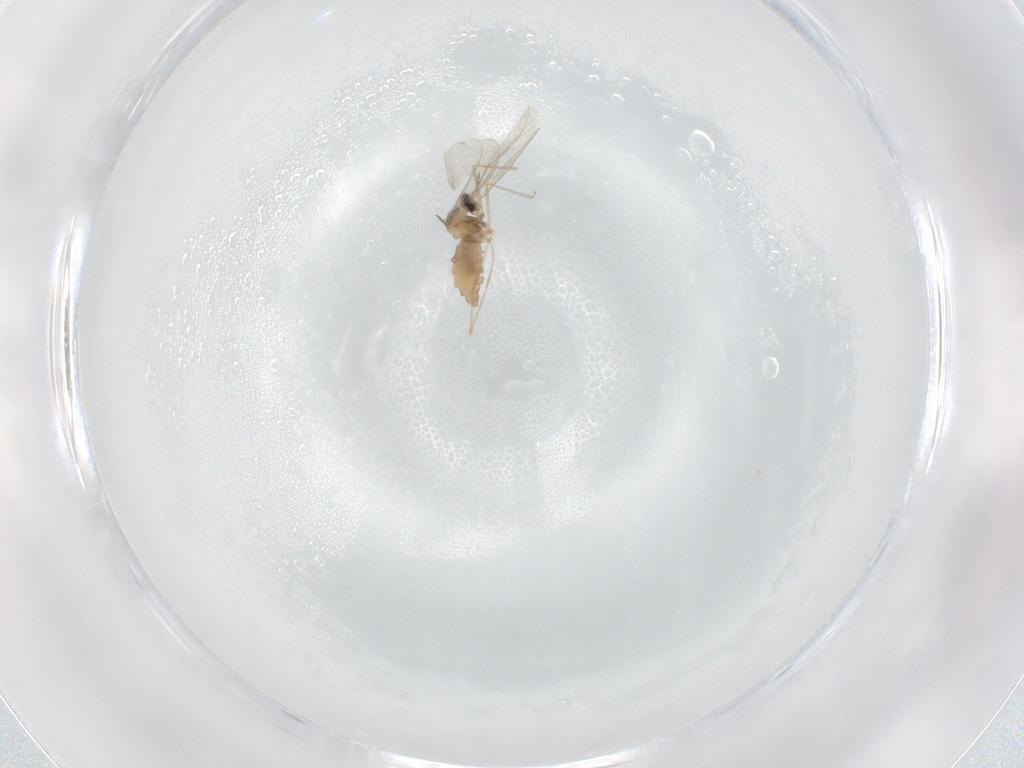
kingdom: Animalia
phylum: Arthropoda
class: Insecta
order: Diptera
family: Cecidomyiidae
